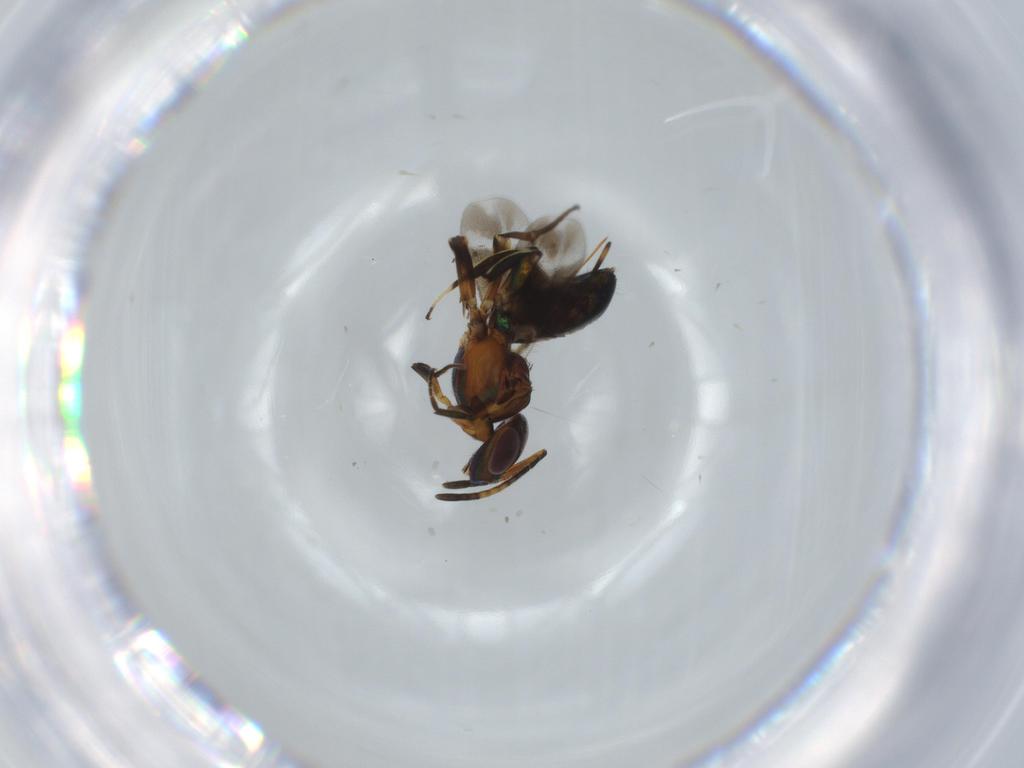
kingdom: Animalia
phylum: Arthropoda
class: Insecta
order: Hymenoptera
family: Eupelmidae
